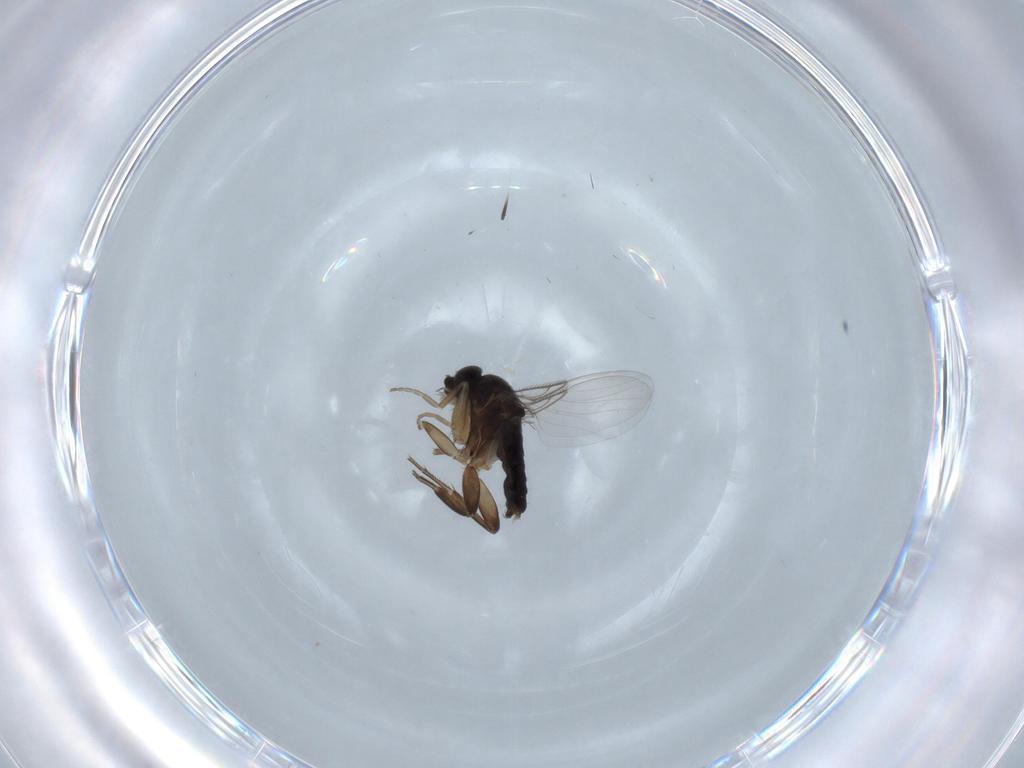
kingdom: Animalia
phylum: Arthropoda
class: Insecta
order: Diptera
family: Phoridae
